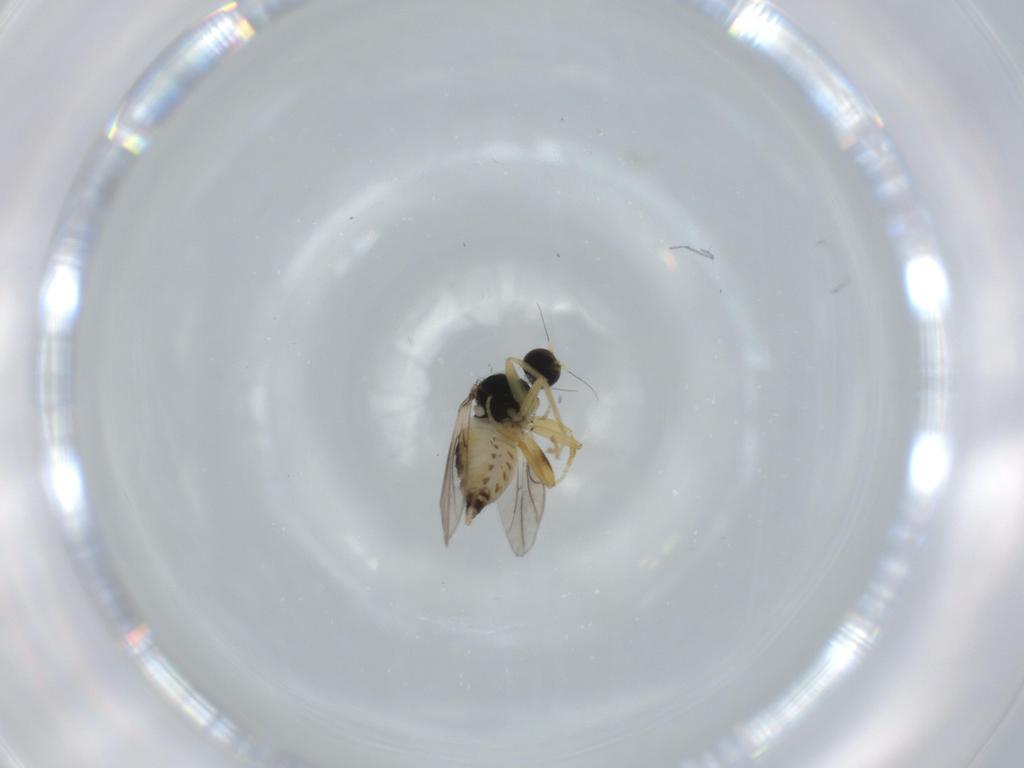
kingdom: Animalia
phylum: Arthropoda
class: Insecta
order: Diptera
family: Hybotidae
